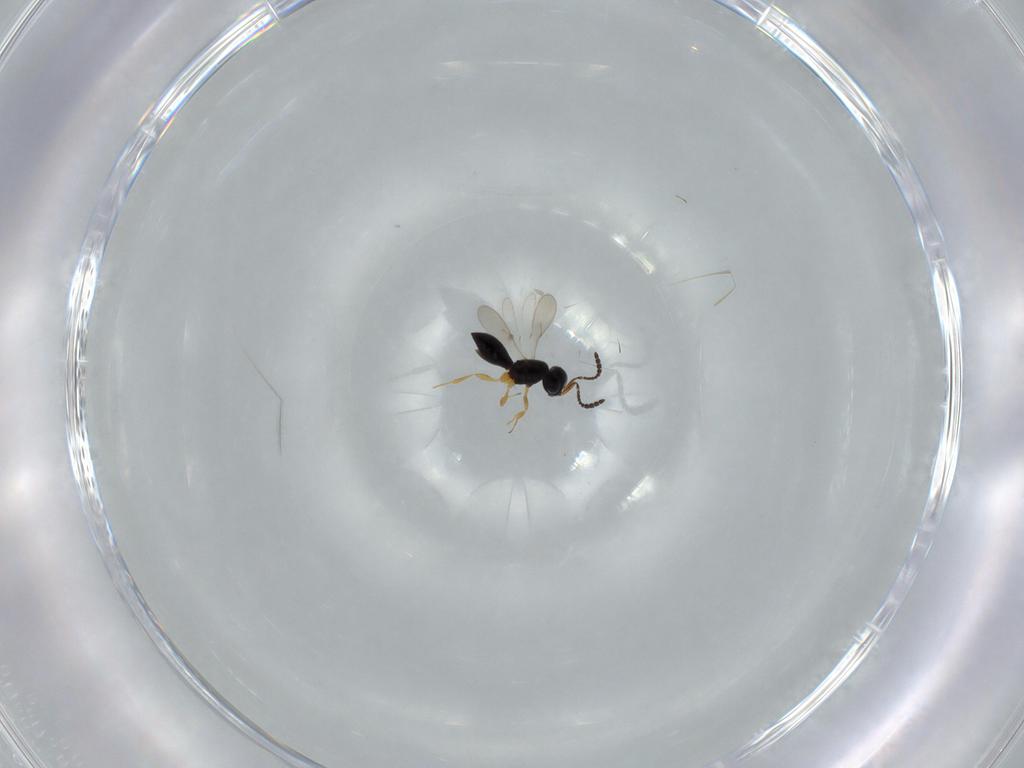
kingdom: Animalia
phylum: Arthropoda
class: Insecta
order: Hymenoptera
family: Scelionidae
